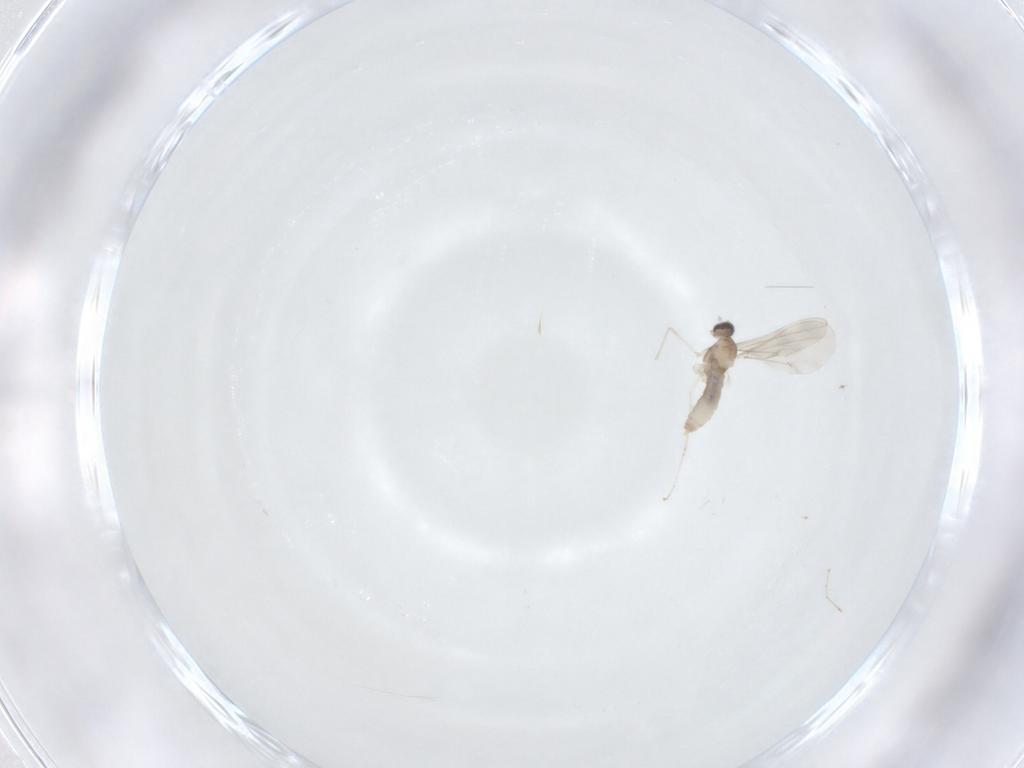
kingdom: Animalia
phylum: Arthropoda
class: Insecta
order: Diptera
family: Cecidomyiidae
